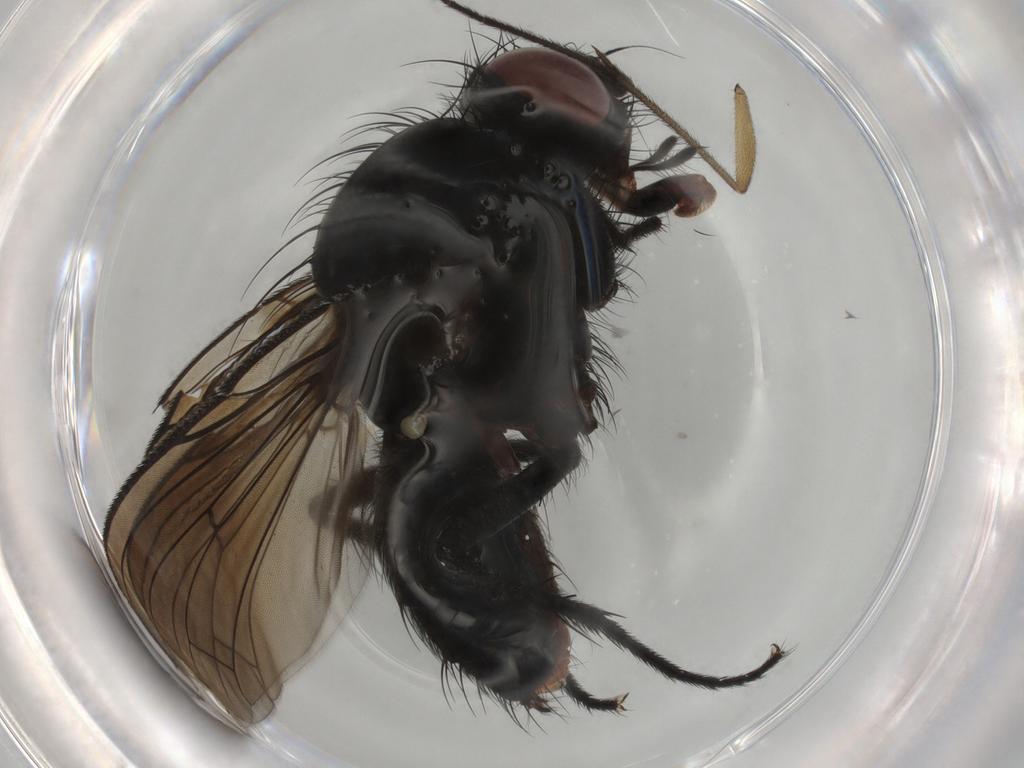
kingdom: Animalia
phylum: Arthropoda
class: Insecta
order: Diptera
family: Anthomyiidae
